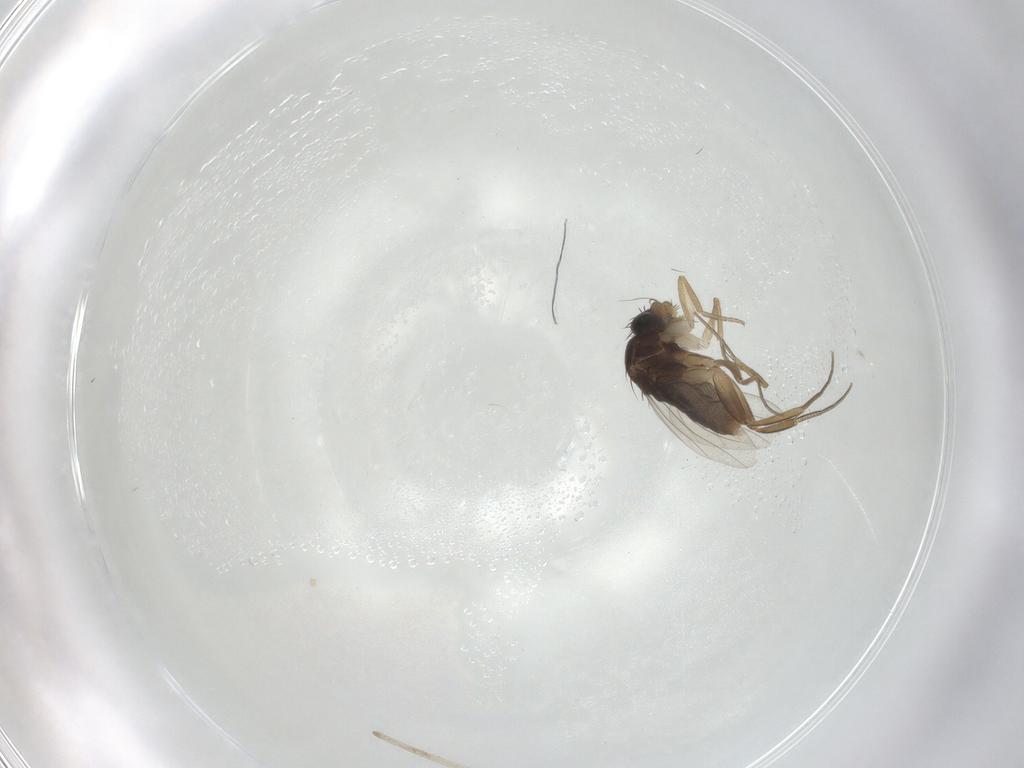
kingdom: Animalia
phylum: Arthropoda
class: Insecta
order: Diptera
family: Phoridae
